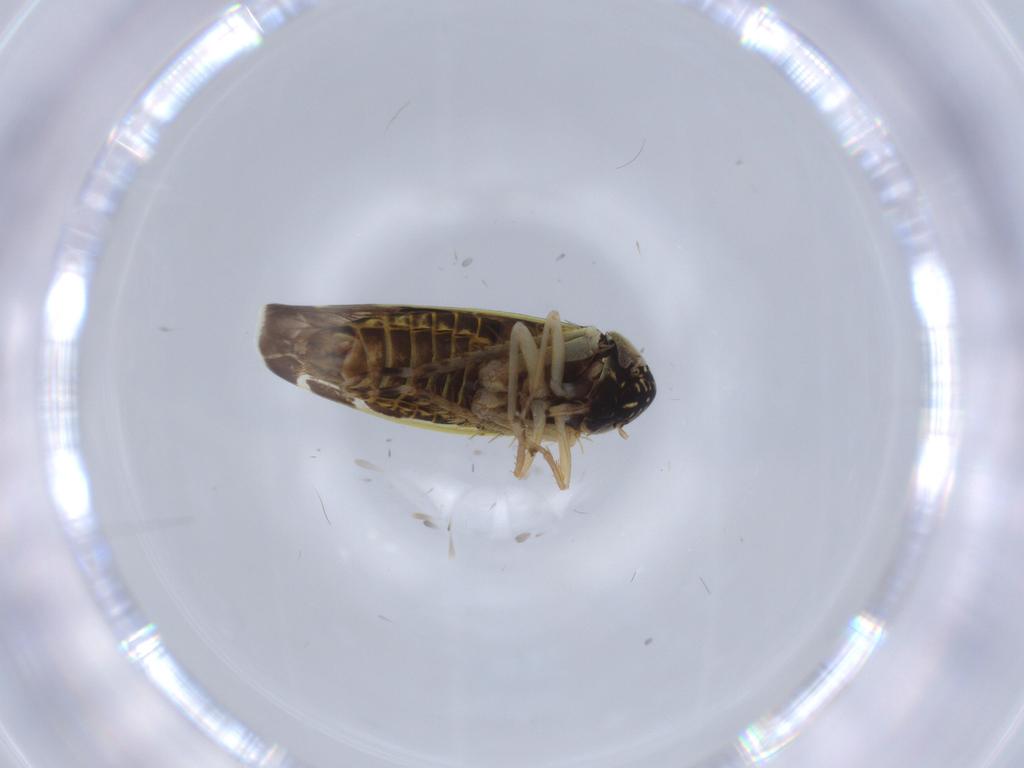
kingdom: Animalia
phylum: Arthropoda
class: Insecta
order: Hemiptera
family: Cicadellidae
